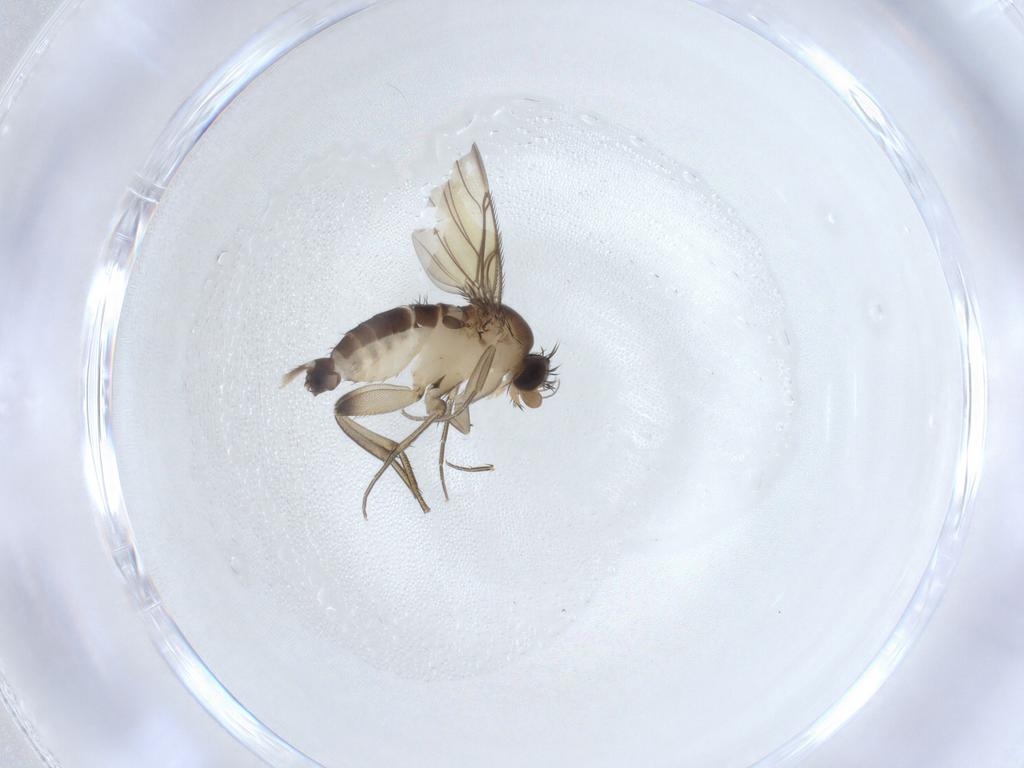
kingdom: Animalia
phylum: Arthropoda
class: Insecta
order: Diptera
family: Phoridae
